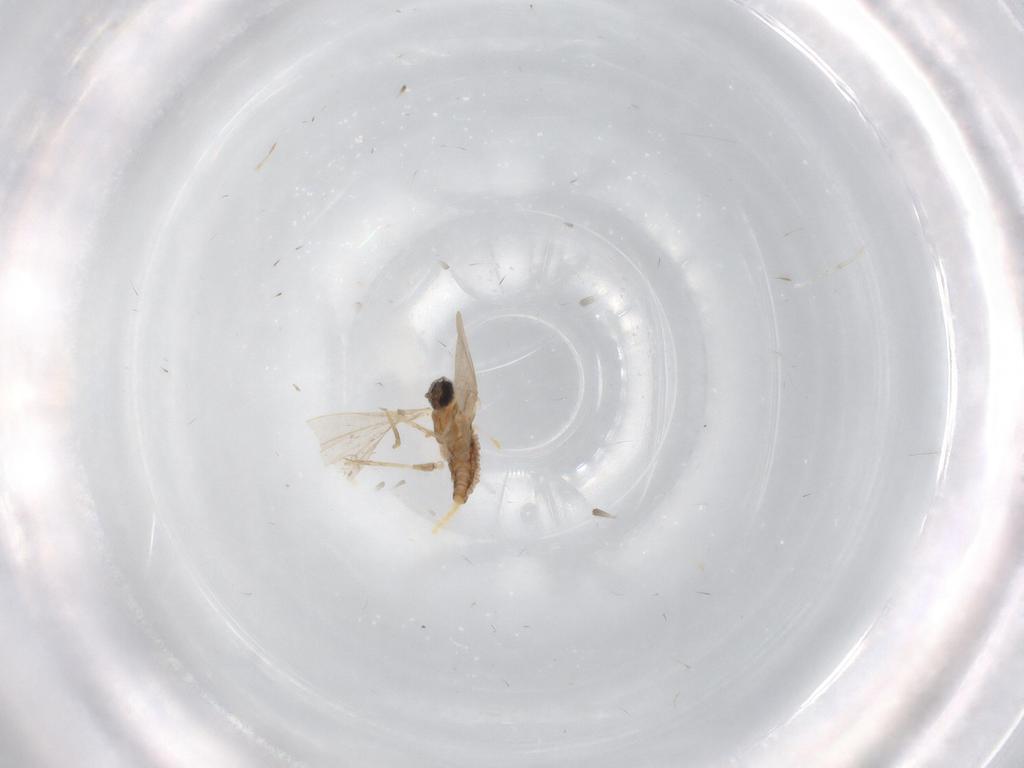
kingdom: Animalia
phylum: Arthropoda
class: Insecta
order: Diptera
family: Cecidomyiidae
